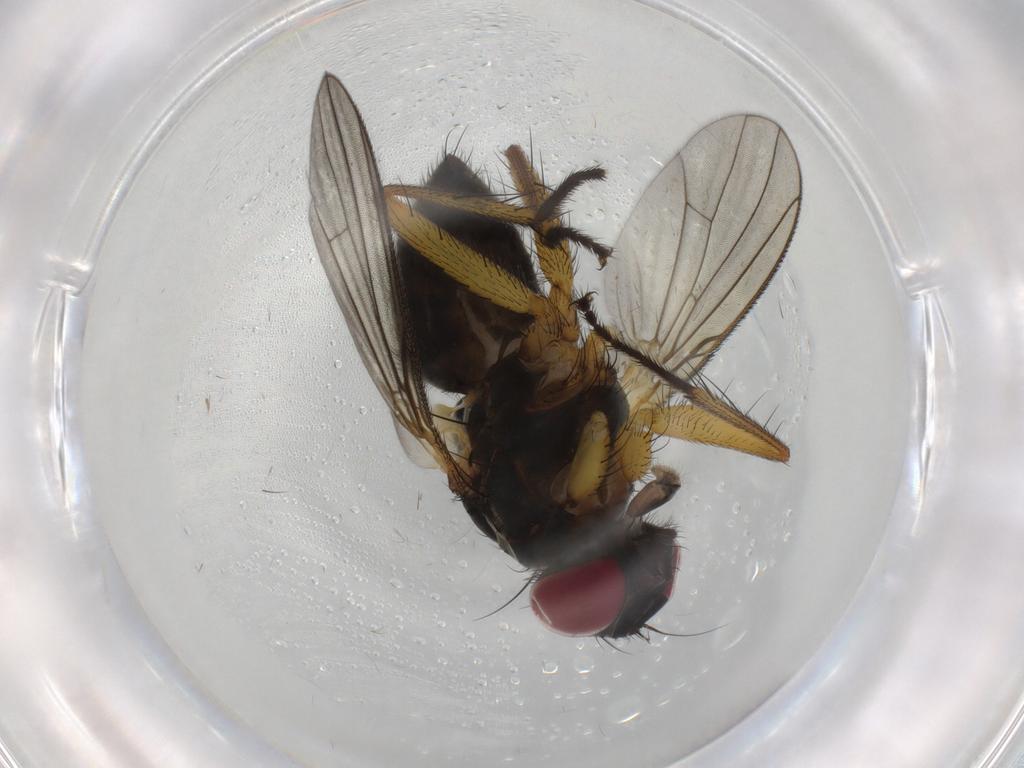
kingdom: Animalia
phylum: Arthropoda
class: Insecta
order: Diptera
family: Muscidae
